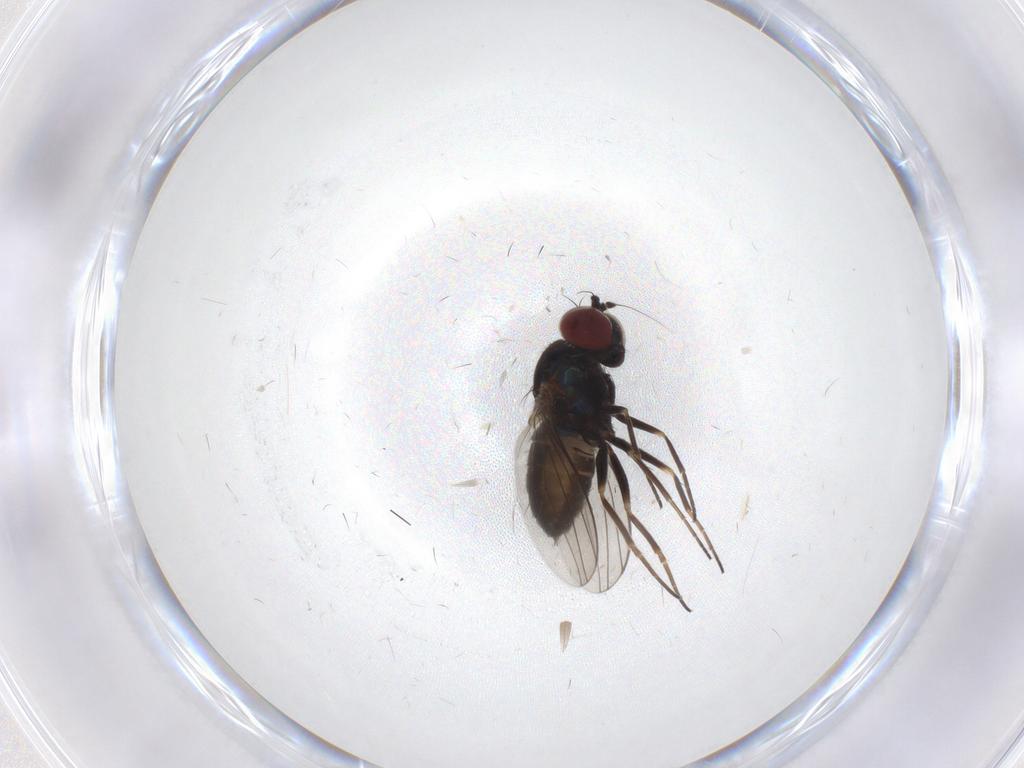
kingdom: Animalia
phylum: Arthropoda
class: Insecta
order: Diptera
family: Dolichopodidae
